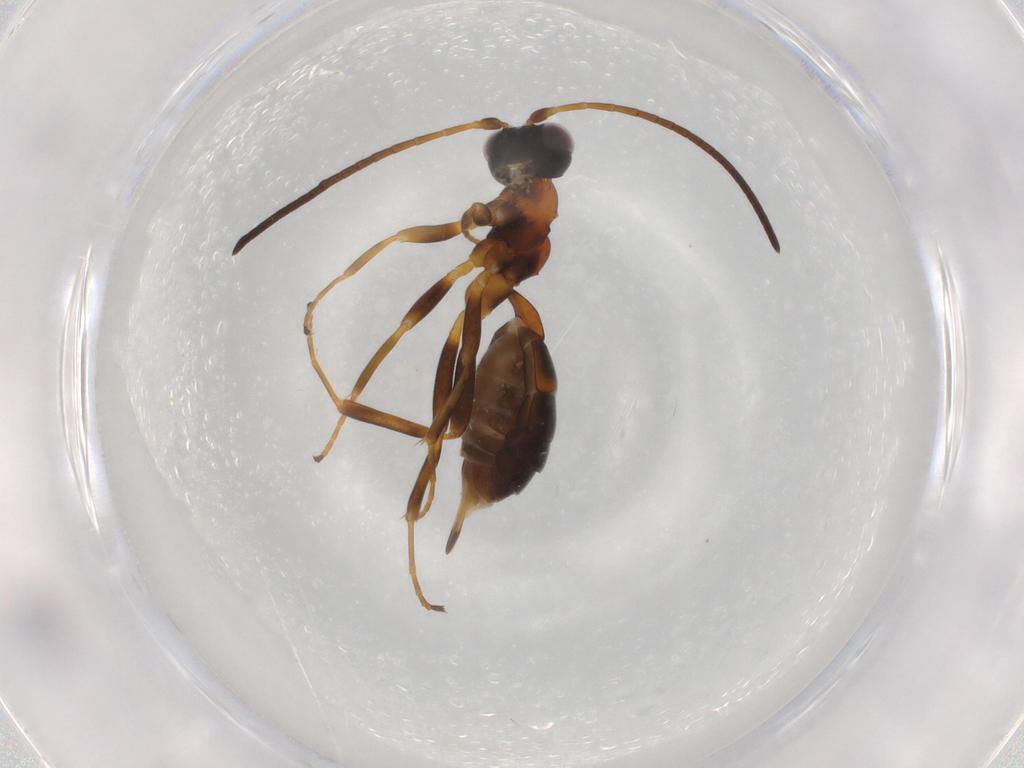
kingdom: Animalia
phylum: Arthropoda
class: Insecta
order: Hymenoptera
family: Ichneumonidae
